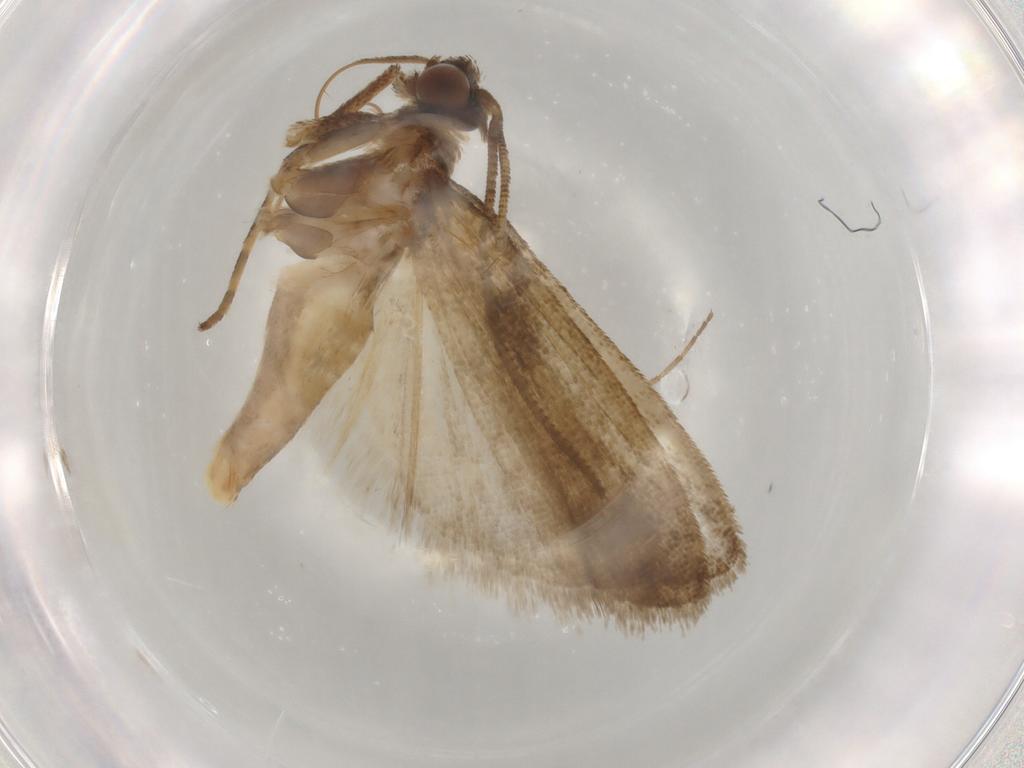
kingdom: Animalia
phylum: Arthropoda
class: Insecta
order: Lepidoptera
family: Noctuidae
